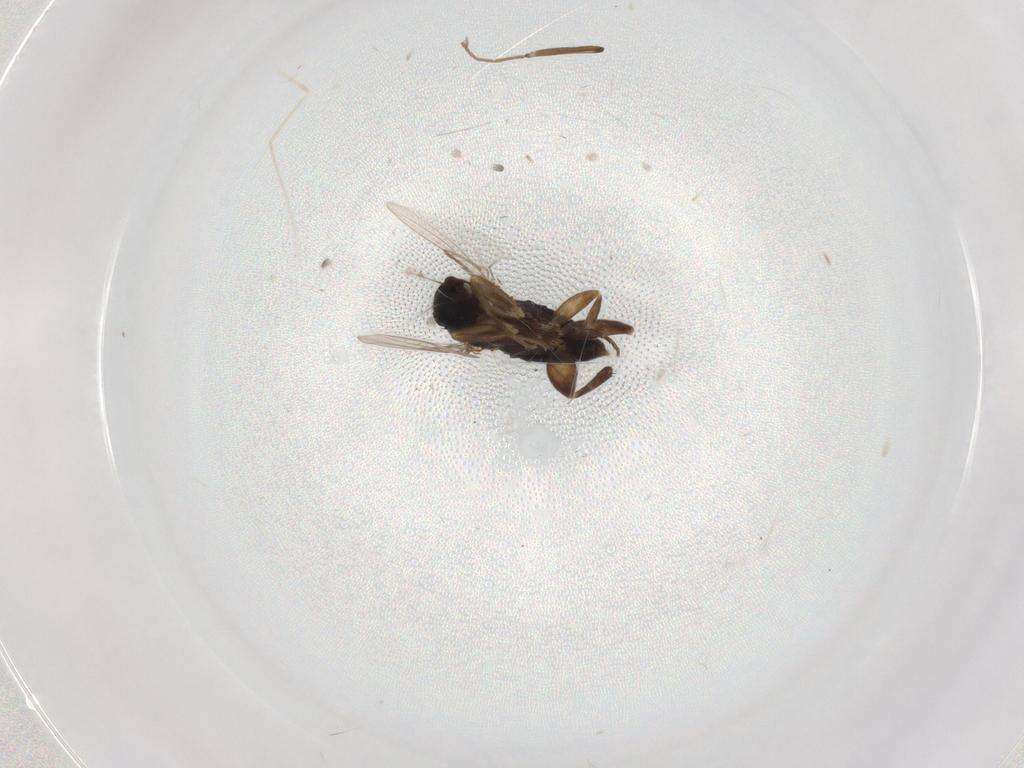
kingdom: Animalia
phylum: Arthropoda
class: Insecta
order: Diptera
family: Phoridae
